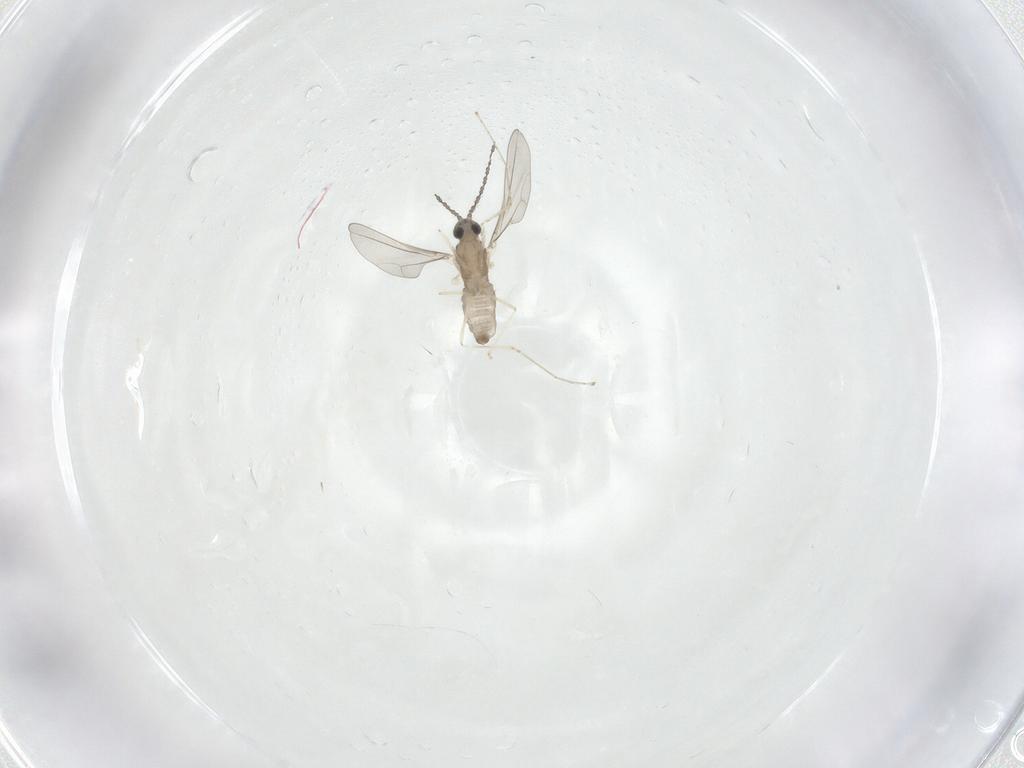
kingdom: Animalia
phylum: Arthropoda
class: Insecta
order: Diptera
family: Cecidomyiidae
